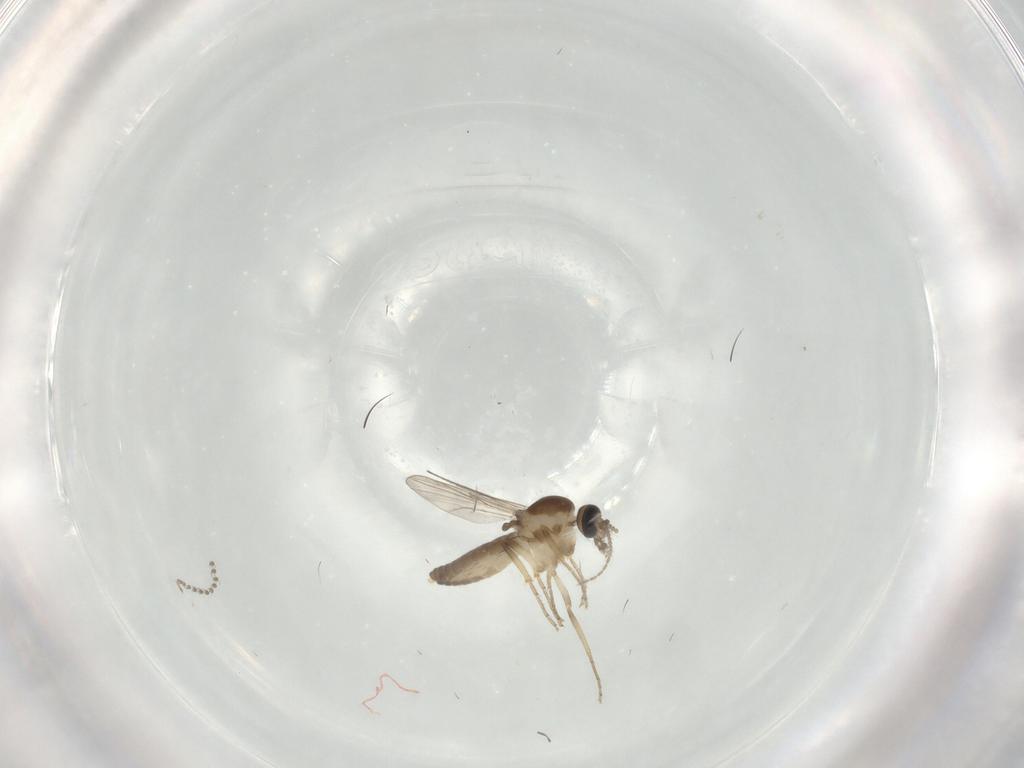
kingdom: Animalia
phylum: Arthropoda
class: Insecta
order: Diptera
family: Ceratopogonidae
